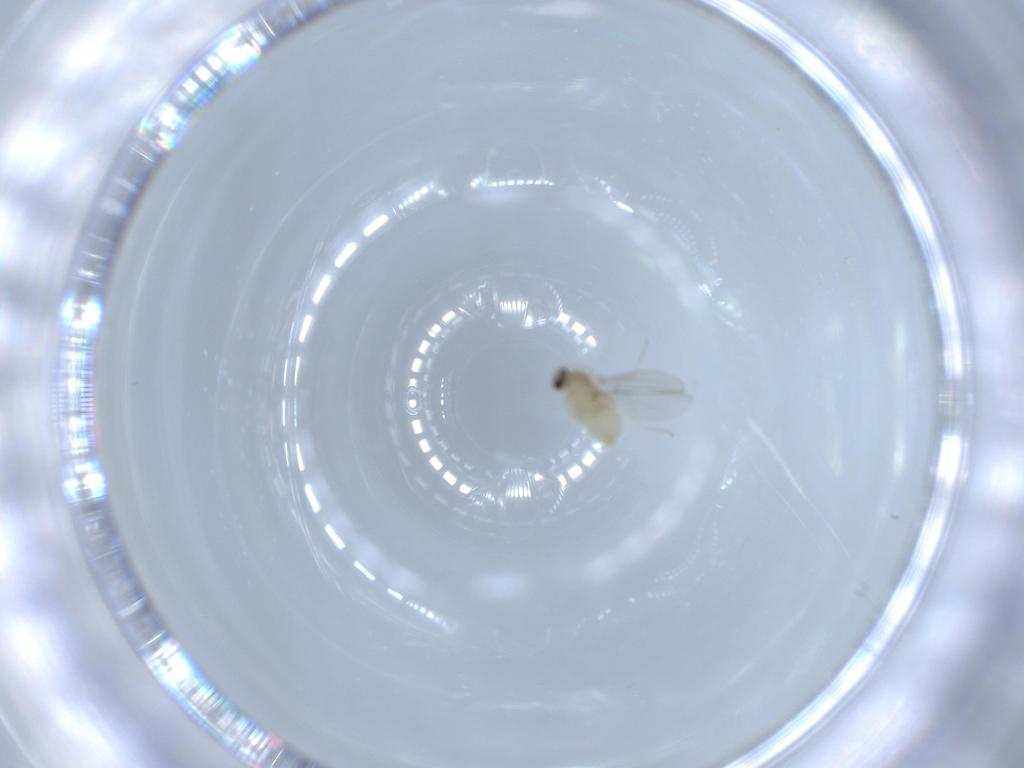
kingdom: Animalia
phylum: Arthropoda
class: Insecta
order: Diptera
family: Cecidomyiidae
